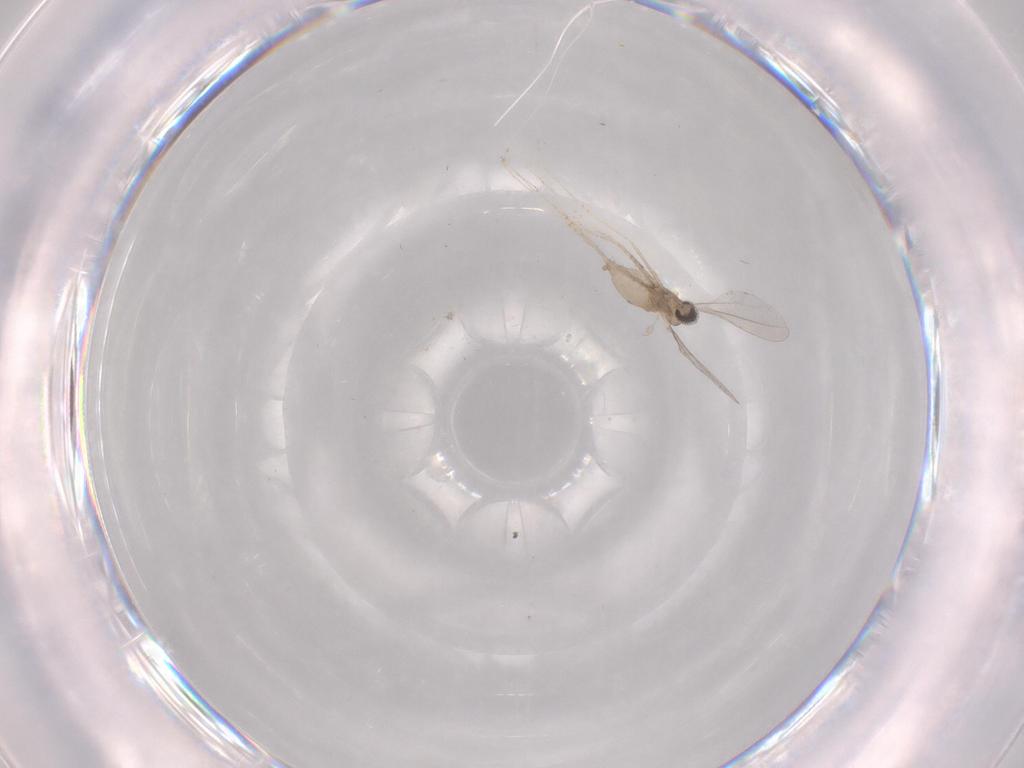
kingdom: Animalia
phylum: Arthropoda
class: Insecta
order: Diptera
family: Cecidomyiidae
